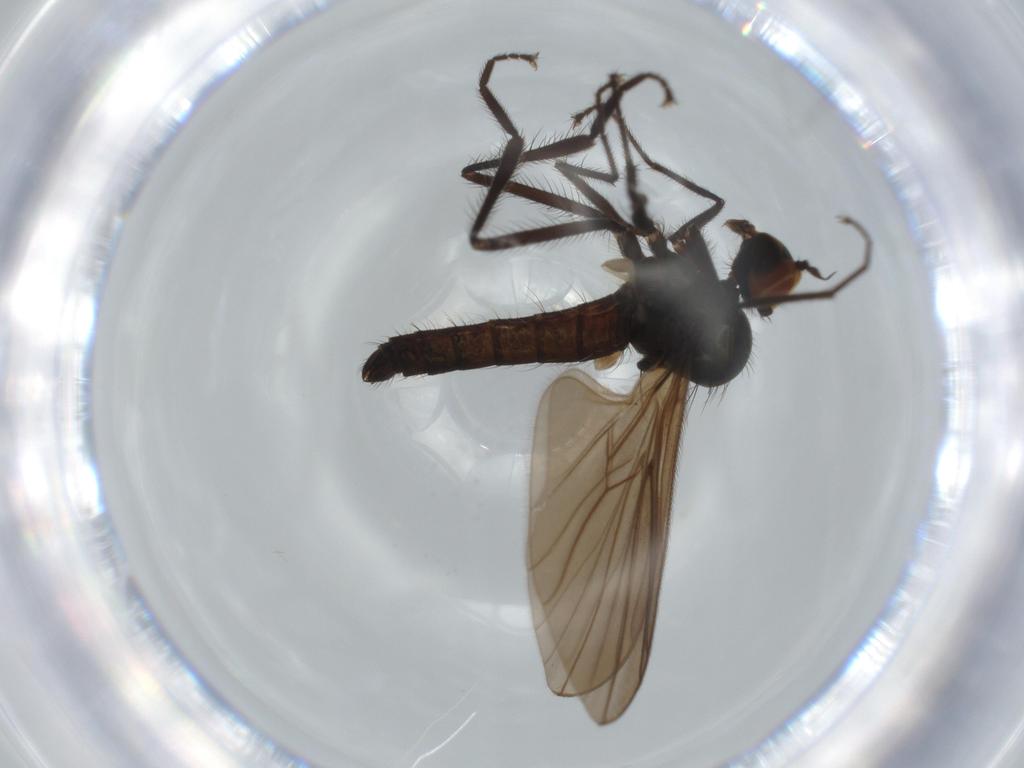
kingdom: Animalia
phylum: Arthropoda
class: Insecta
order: Diptera
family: Hybotidae
